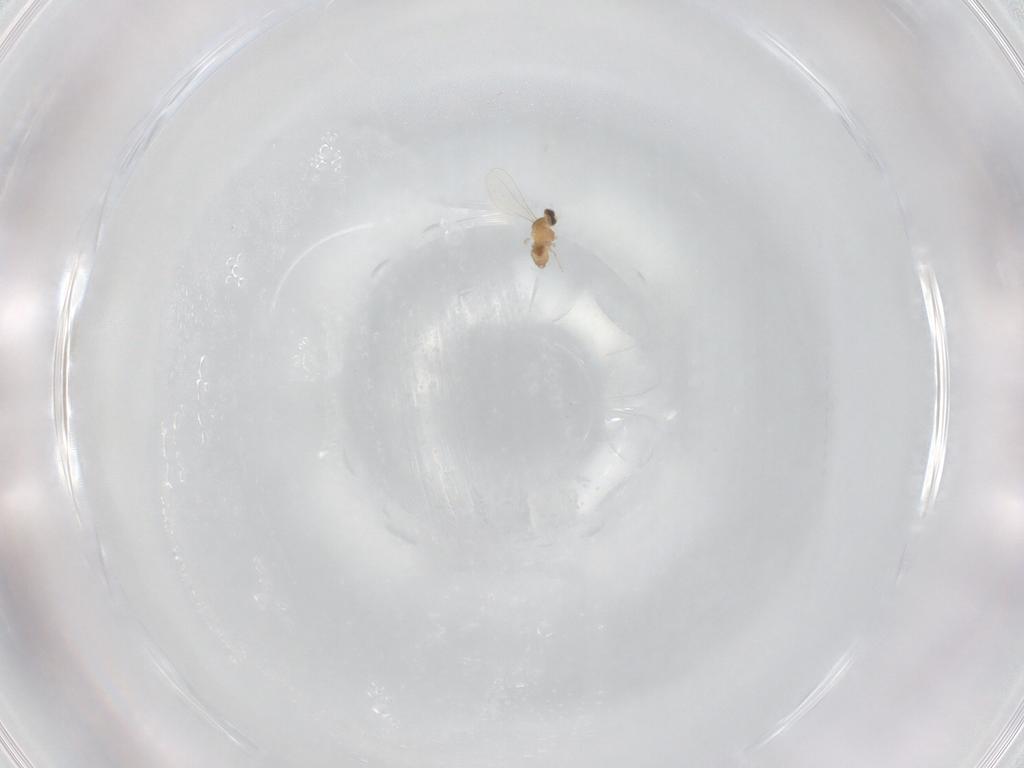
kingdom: Animalia
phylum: Arthropoda
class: Insecta
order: Diptera
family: Cecidomyiidae
